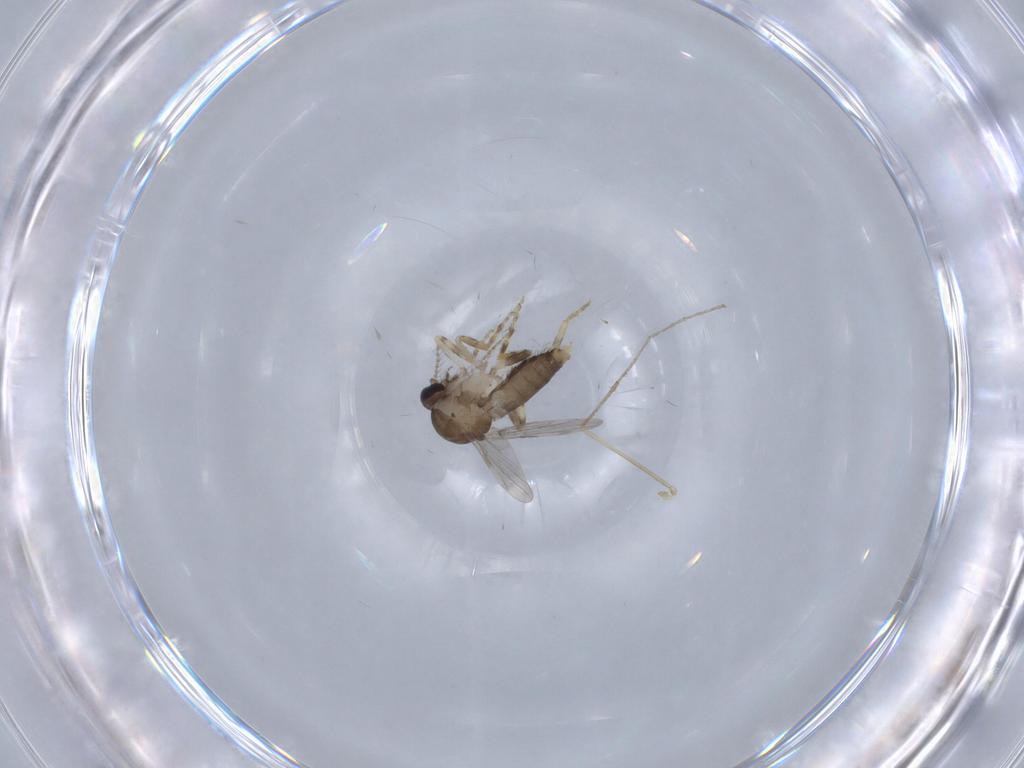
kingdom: Animalia
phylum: Arthropoda
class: Insecta
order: Diptera
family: Ceratopogonidae
